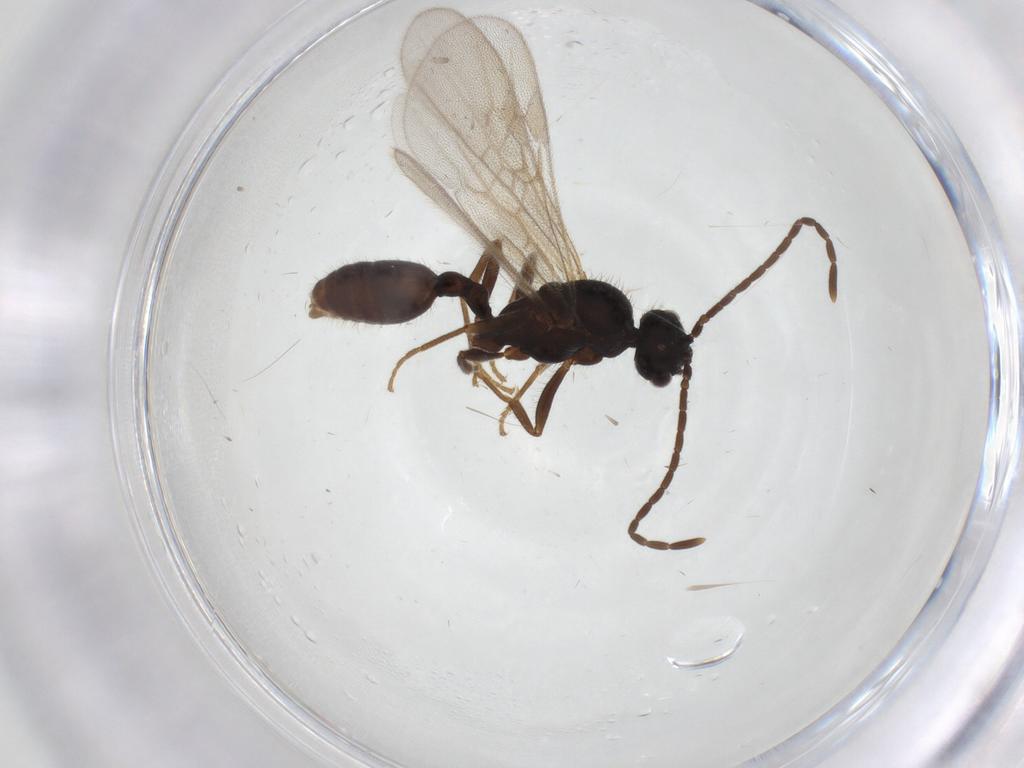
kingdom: Animalia
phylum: Arthropoda
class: Insecta
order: Hymenoptera
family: Formicidae
